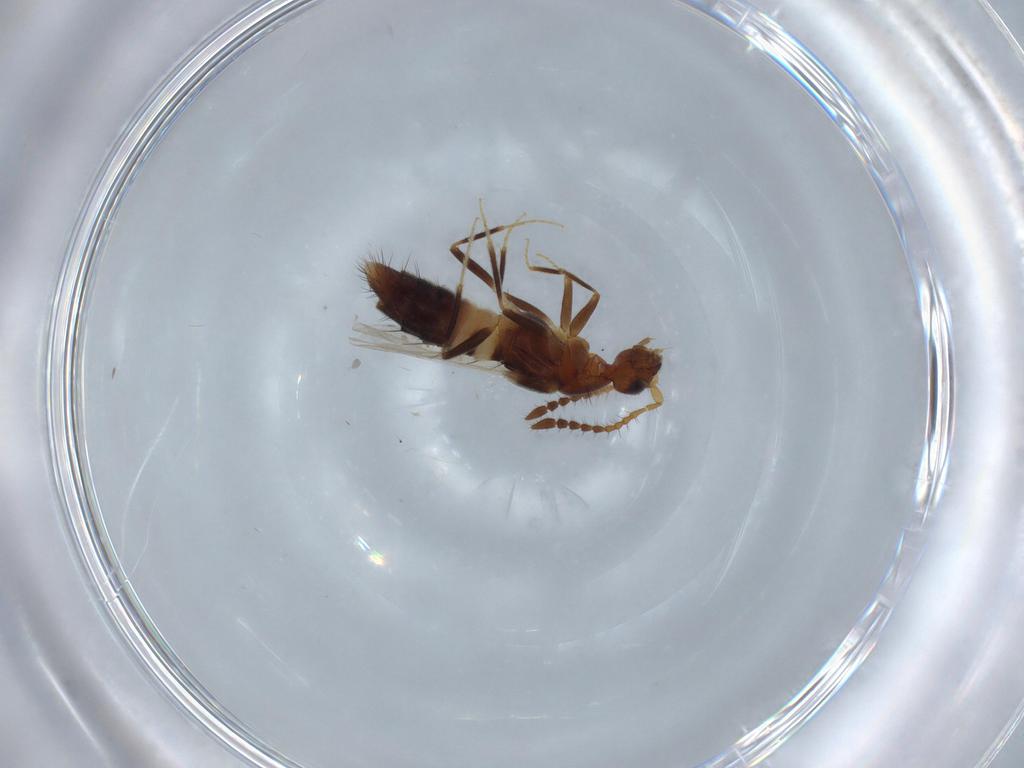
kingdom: Animalia
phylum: Arthropoda
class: Insecta
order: Coleoptera
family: Staphylinidae
